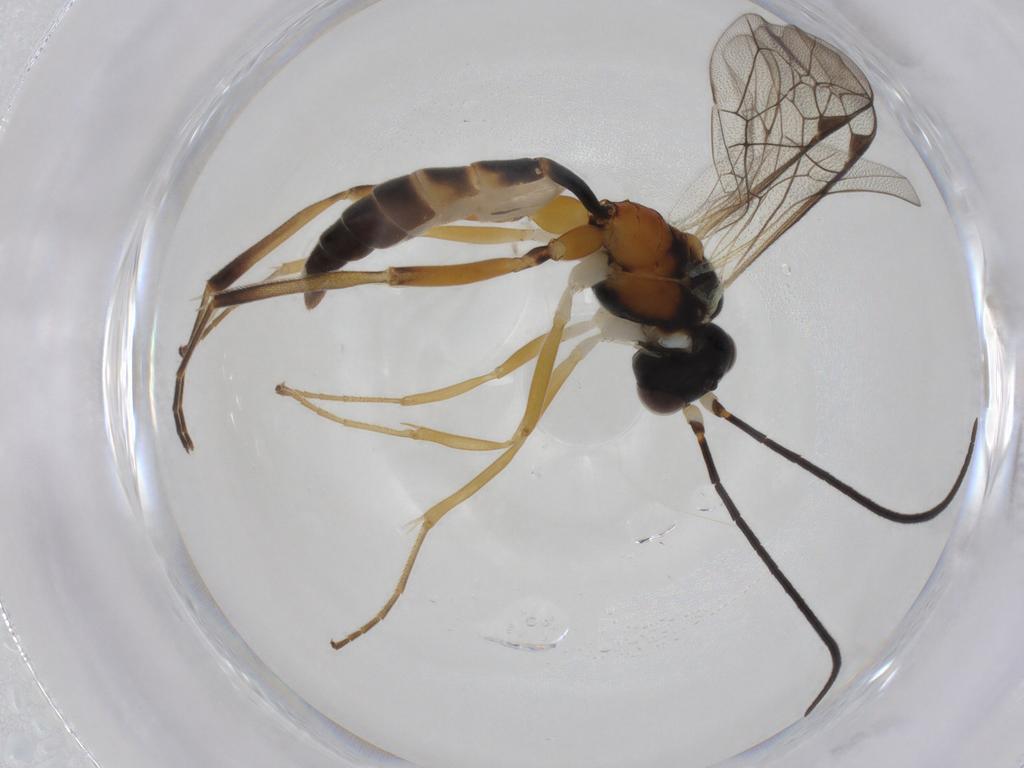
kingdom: Animalia
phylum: Arthropoda
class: Insecta
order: Hymenoptera
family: Ichneumonidae
